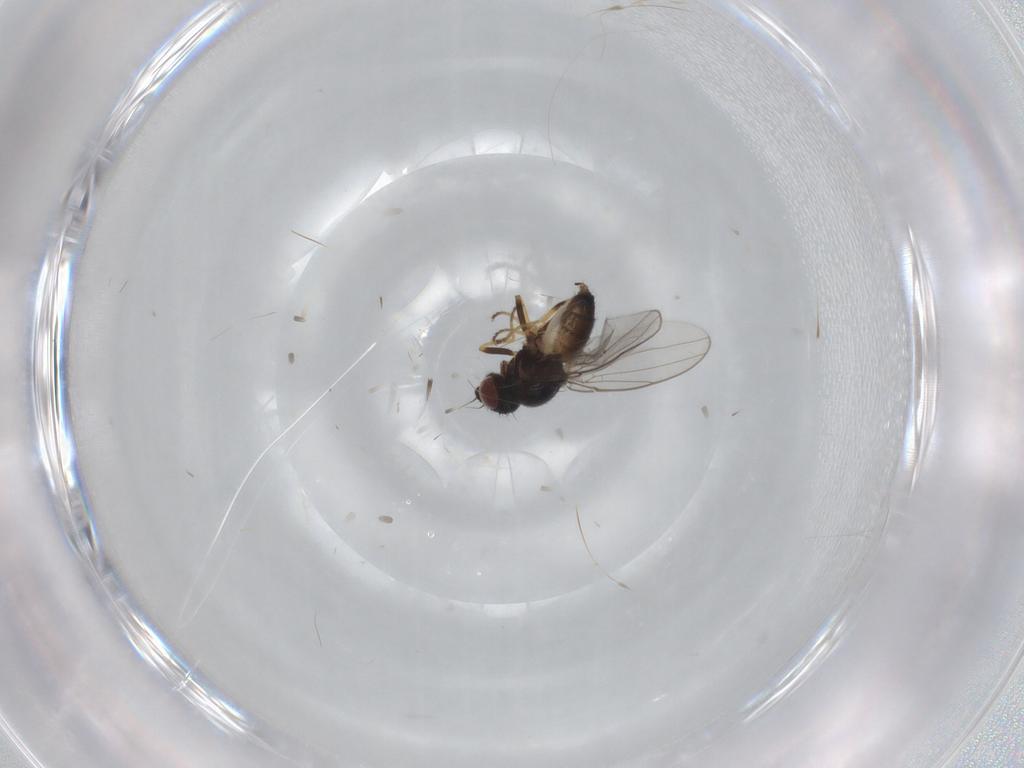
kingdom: Animalia
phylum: Arthropoda
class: Insecta
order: Diptera
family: Chloropidae
